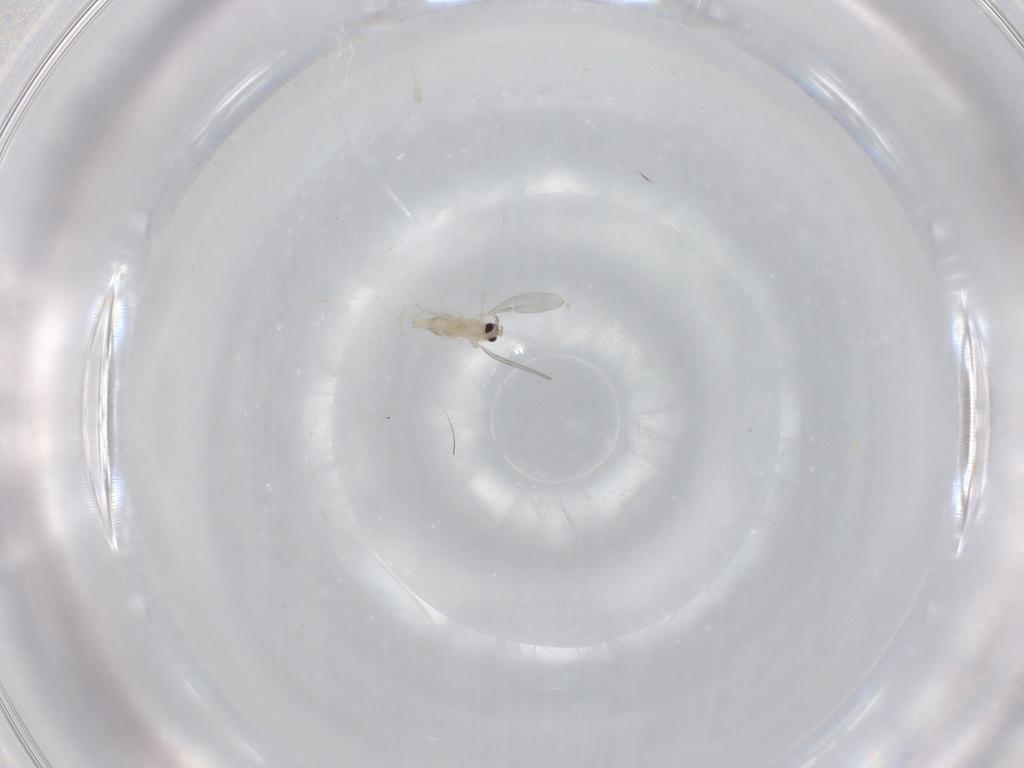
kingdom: Animalia
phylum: Arthropoda
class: Insecta
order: Diptera
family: Cecidomyiidae
